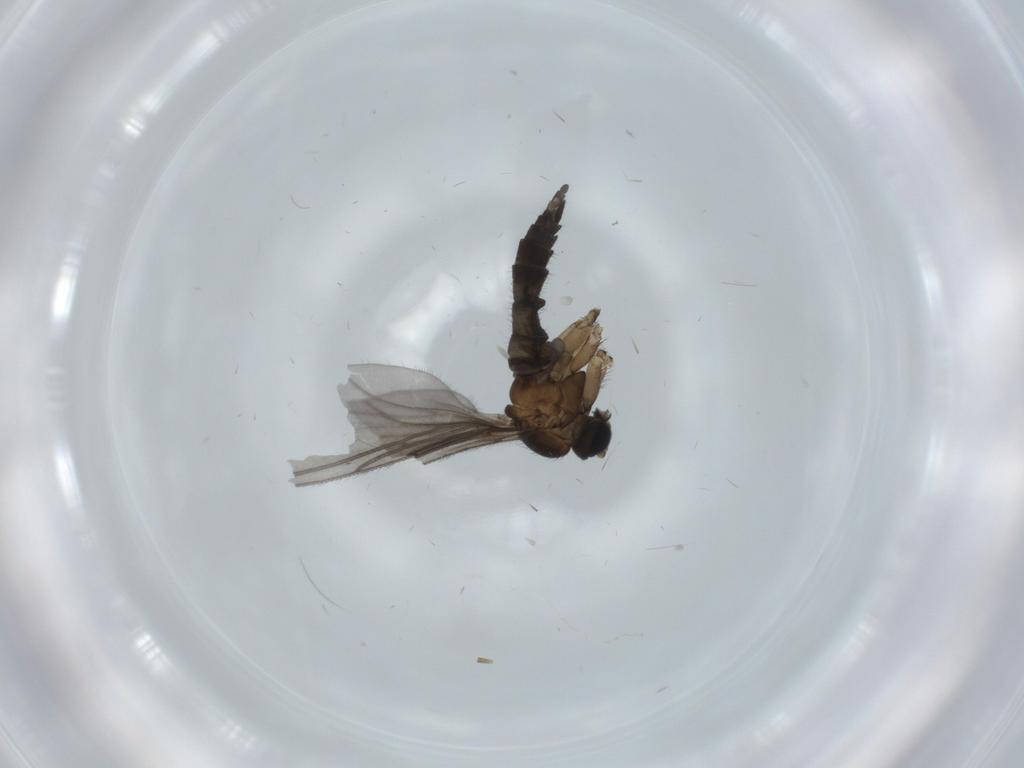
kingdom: Animalia
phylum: Arthropoda
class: Insecta
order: Diptera
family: Sciaridae
